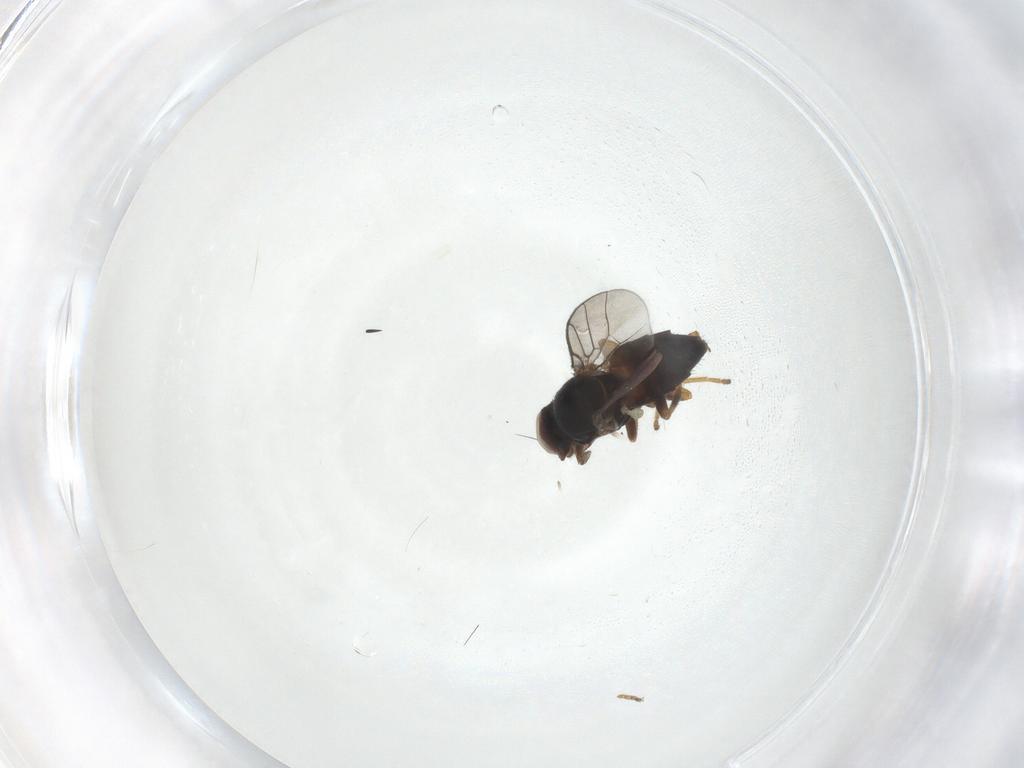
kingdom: Animalia
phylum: Arthropoda
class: Insecta
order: Diptera
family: Chloropidae
